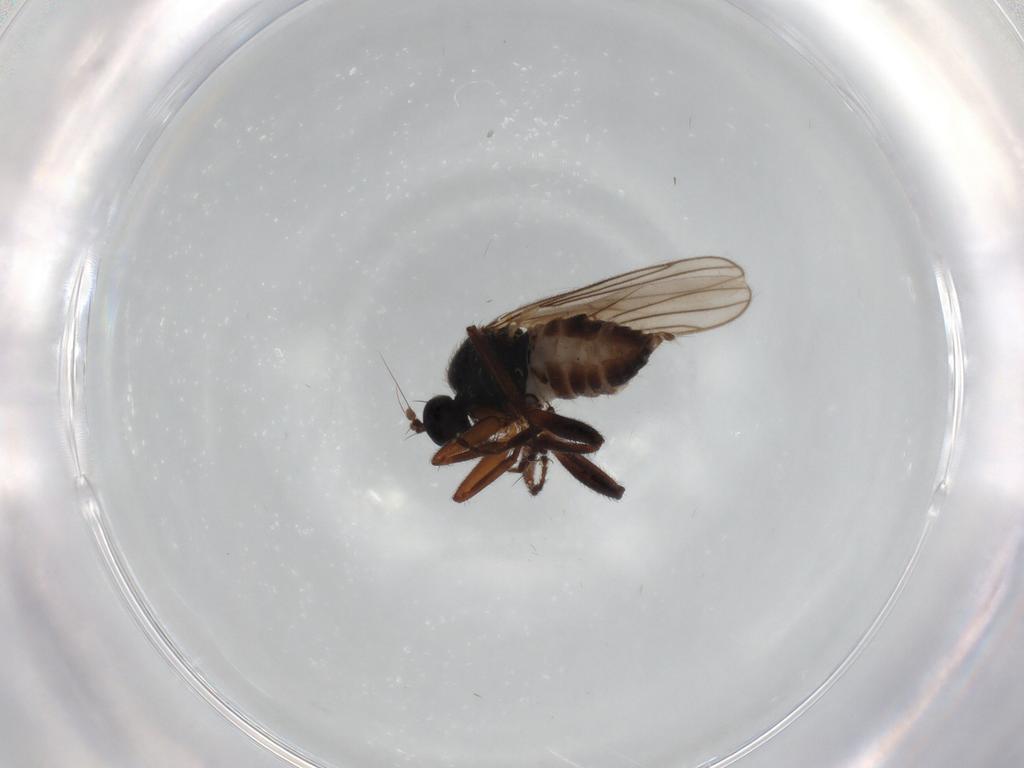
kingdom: Animalia
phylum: Arthropoda
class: Insecta
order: Diptera
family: Hybotidae
